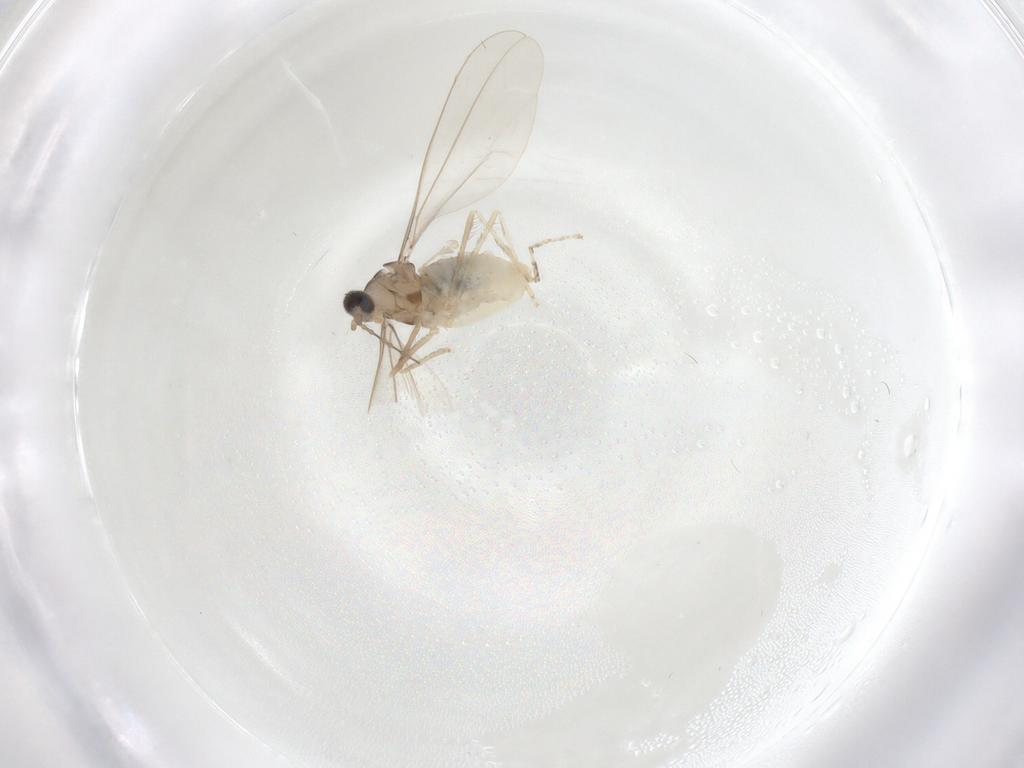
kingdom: Animalia
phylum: Arthropoda
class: Insecta
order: Diptera
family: Cecidomyiidae
